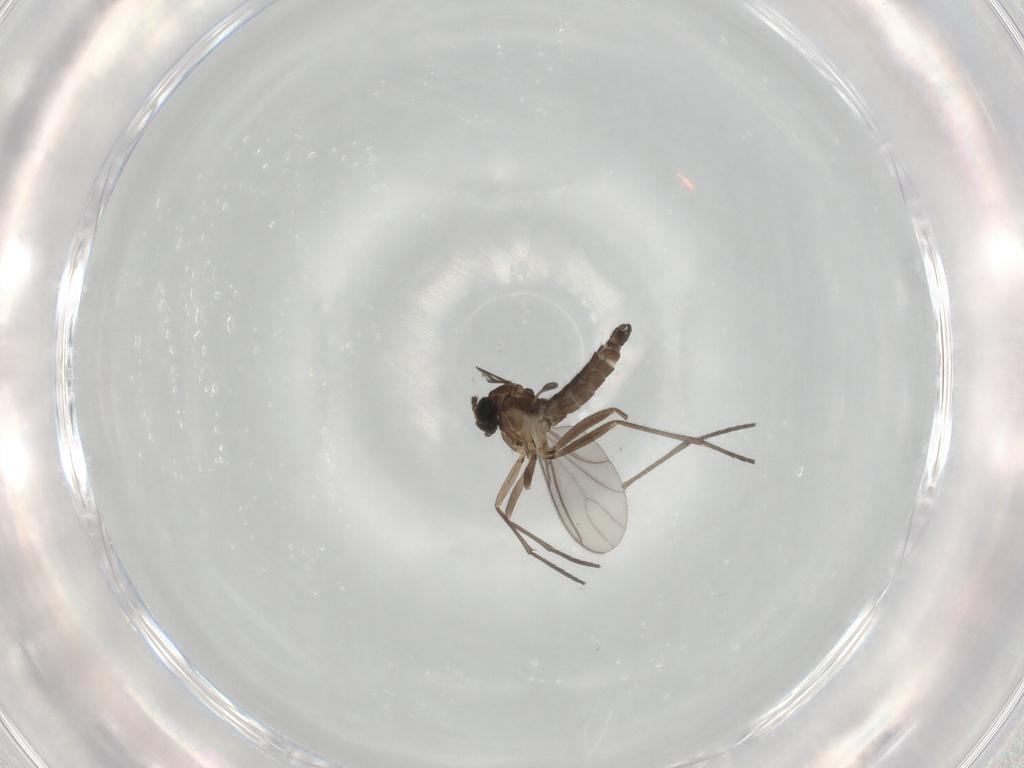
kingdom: Animalia
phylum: Arthropoda
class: Insecta
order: Diptera
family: Sciaridae
